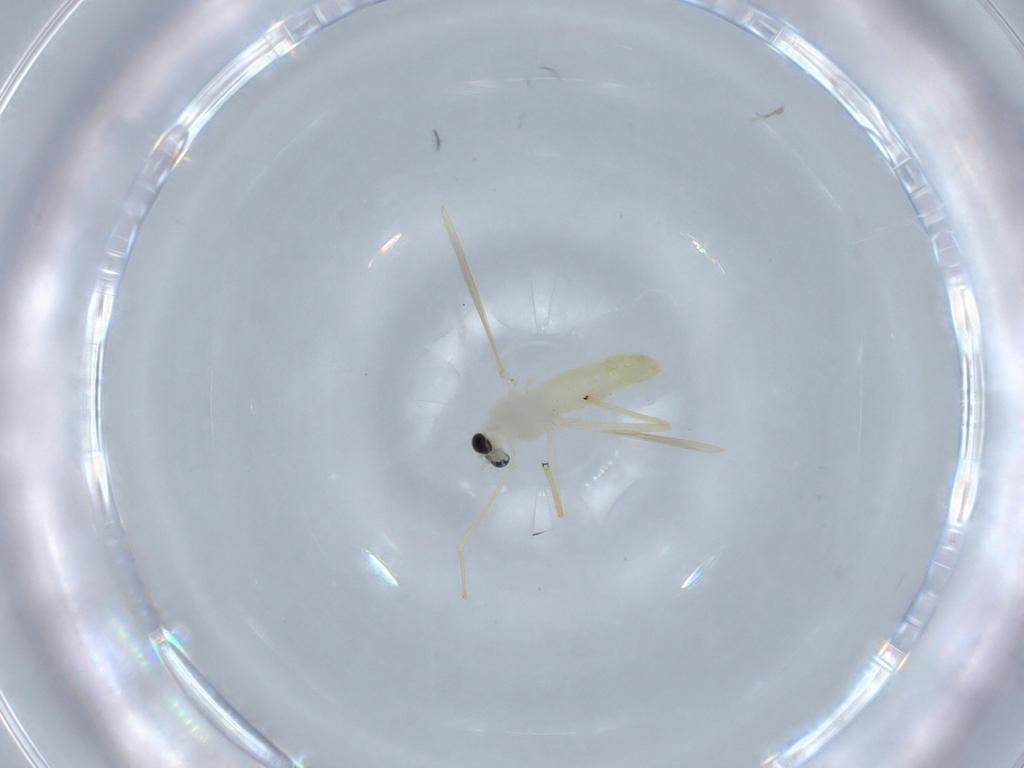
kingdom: Animalia
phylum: Arthropoda
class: Insecta
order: Diptera
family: Chironomidae
